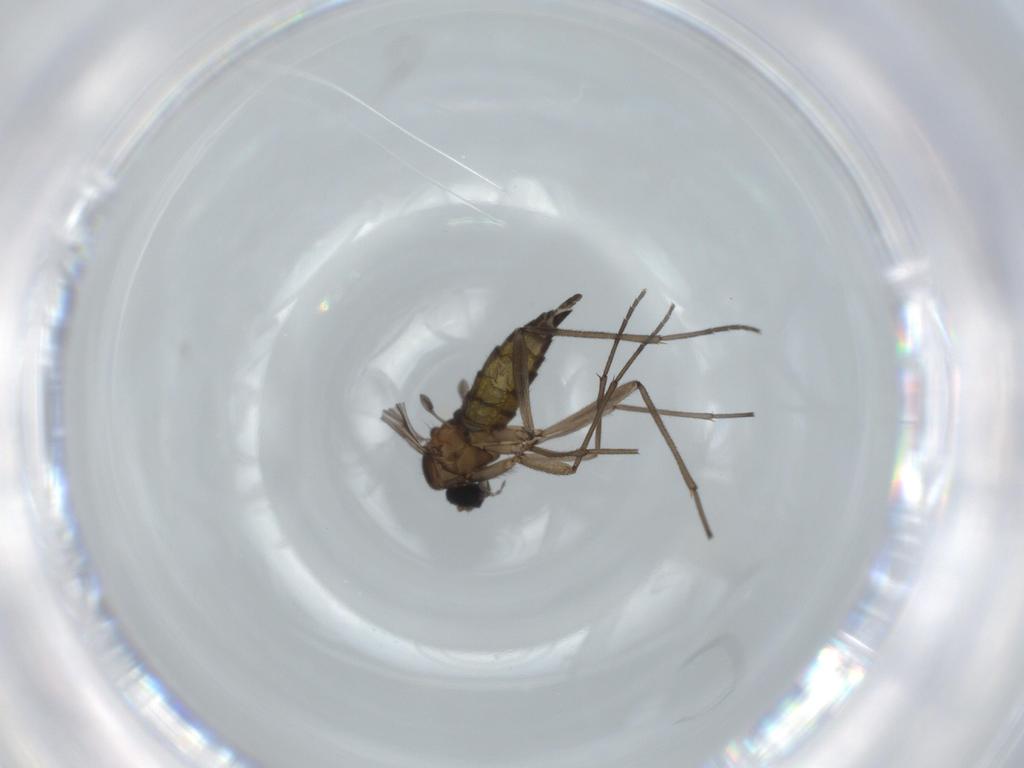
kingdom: Animalia
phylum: Arthropoda
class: Insecta
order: Diptera
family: Sciaridae
